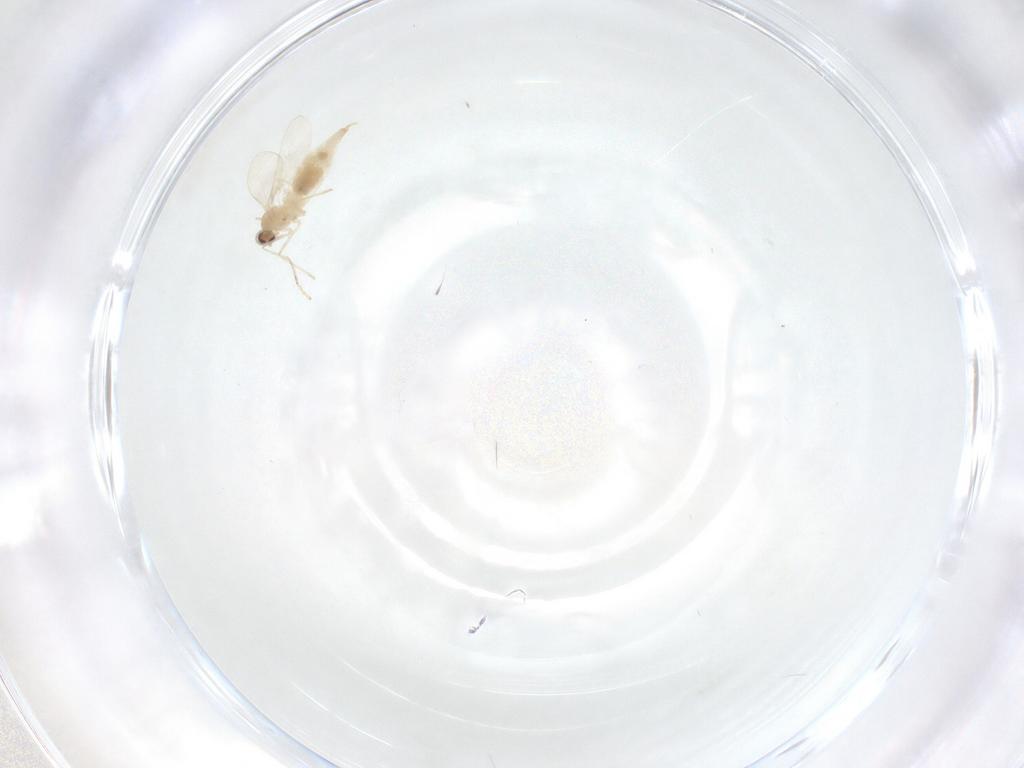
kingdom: Animalia
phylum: Arthropoda
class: Insecta
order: Diptera
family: Cecidomyiidae
